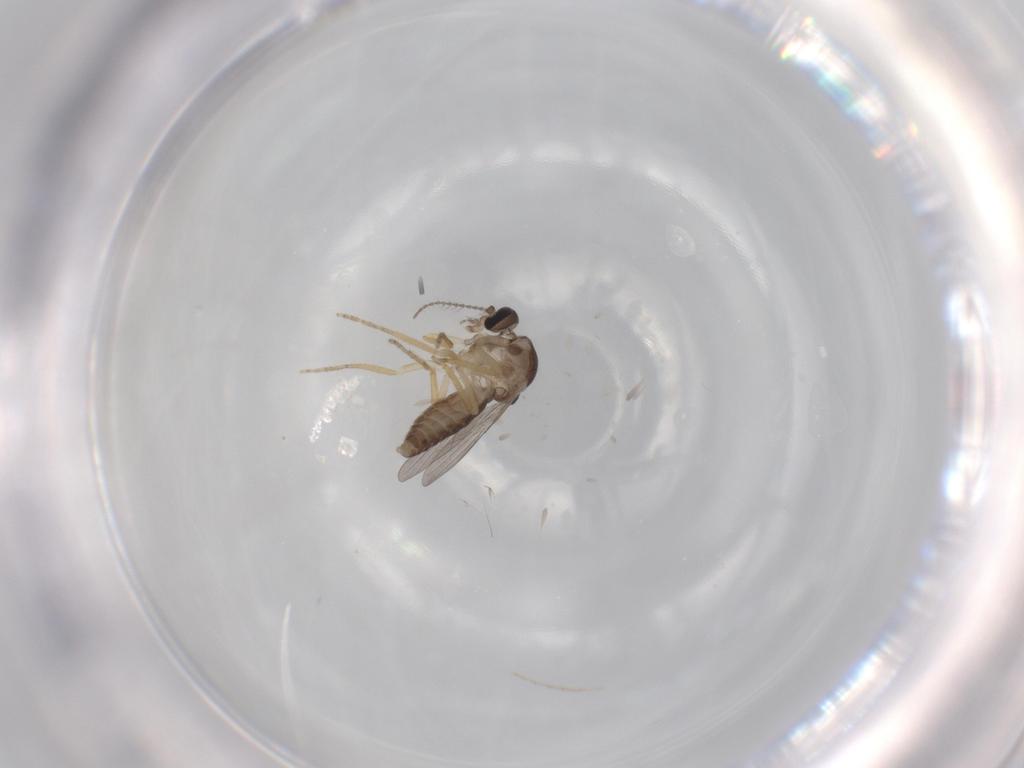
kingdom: Animalia
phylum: Arthropoda
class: Insecta
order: Diptera
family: Ceratopogonidae
